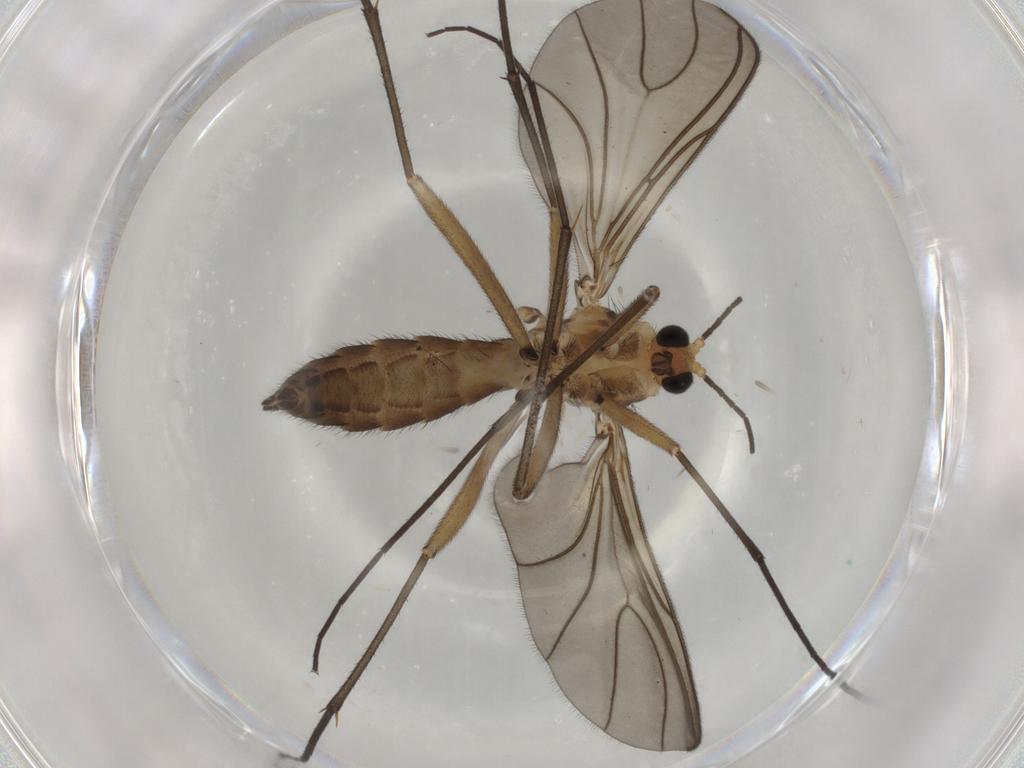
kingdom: Animalia
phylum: Arthropoda
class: Insecta
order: Diptera
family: Sciaridae
